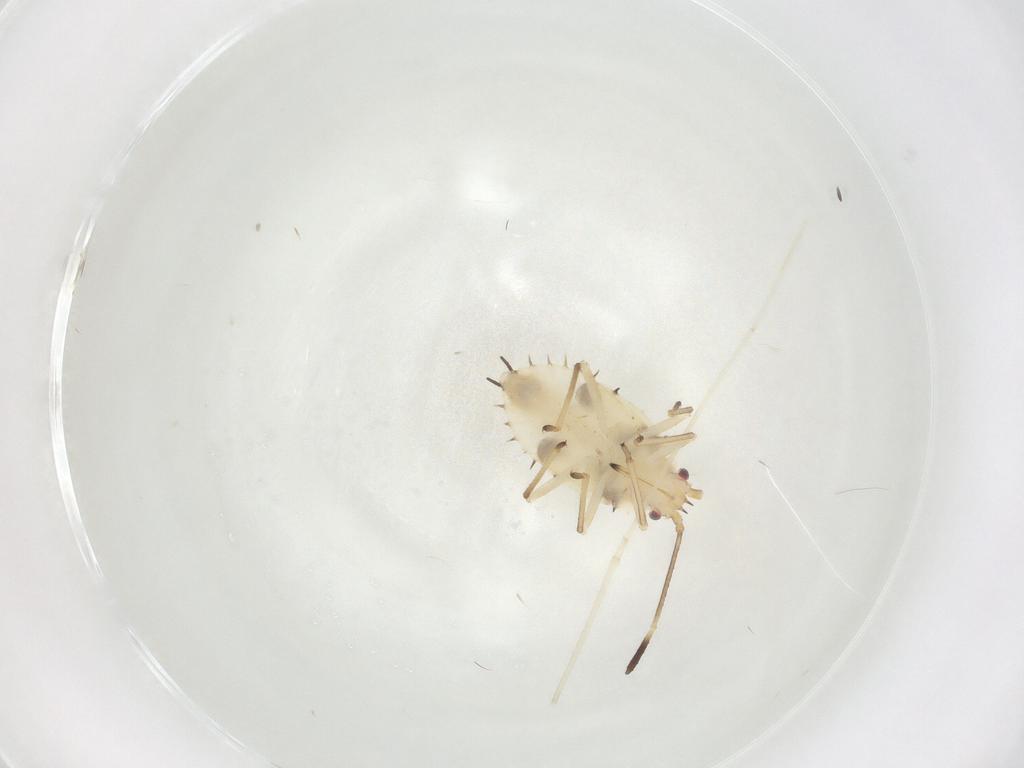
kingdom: Animalia
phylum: Arthropoda
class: Insecta
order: Hemiptera
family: Tingidae
